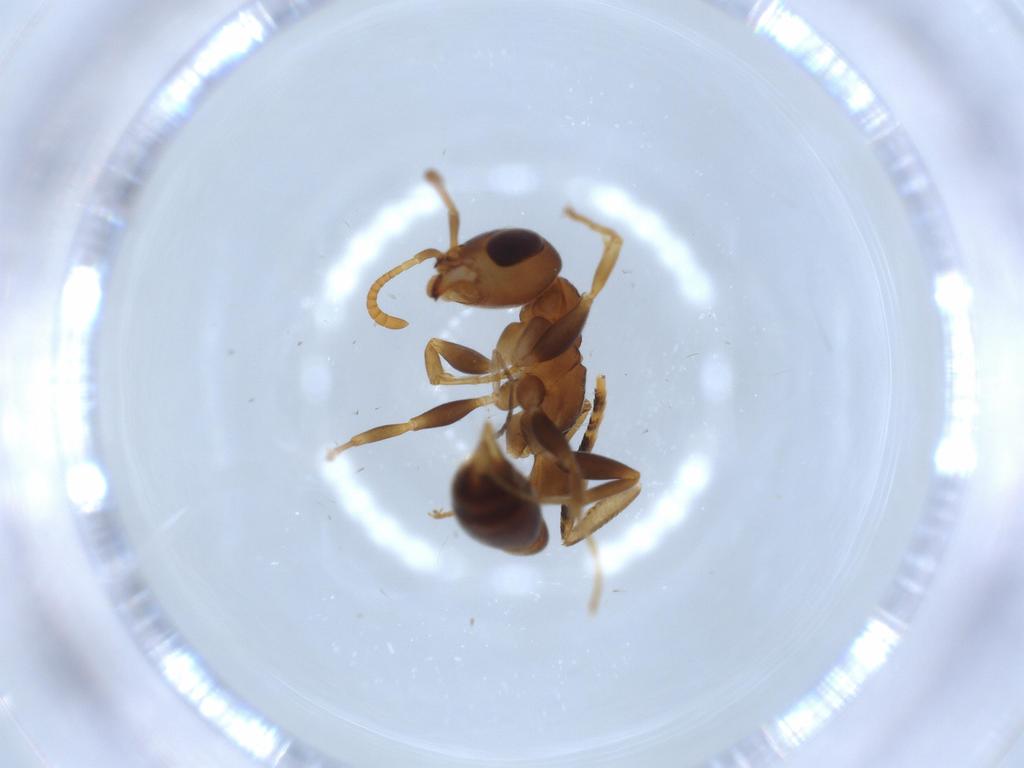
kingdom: Animalia
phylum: Arthropoda
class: Insecta
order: Hymenoptera
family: Formicidae
